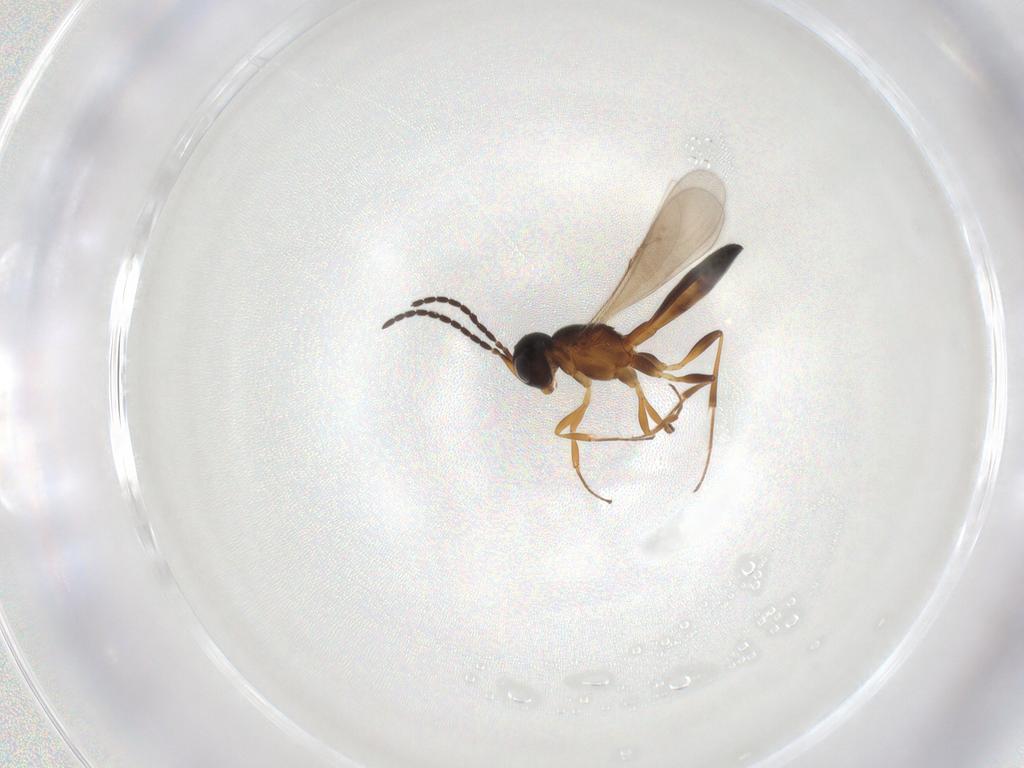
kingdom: Animalia
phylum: Arthropoda
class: Insecta
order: Hymenoptera
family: Scelionidae
